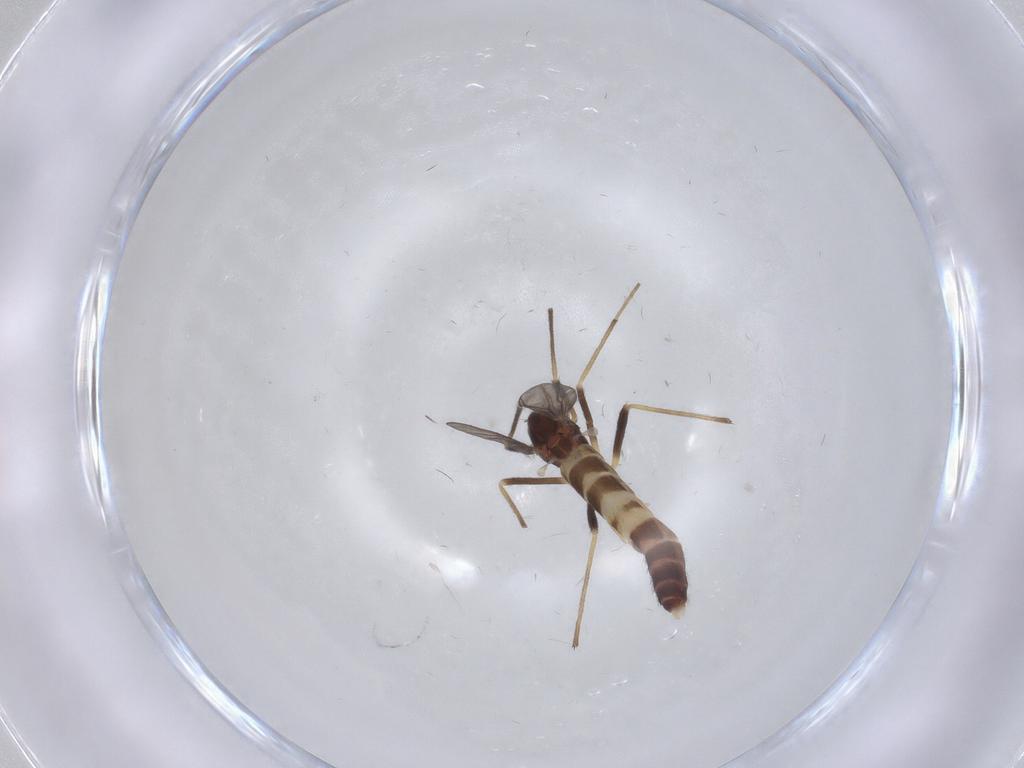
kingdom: Animalia
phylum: Arthropoda
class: Insecta
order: Diptera
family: Chironomidae
